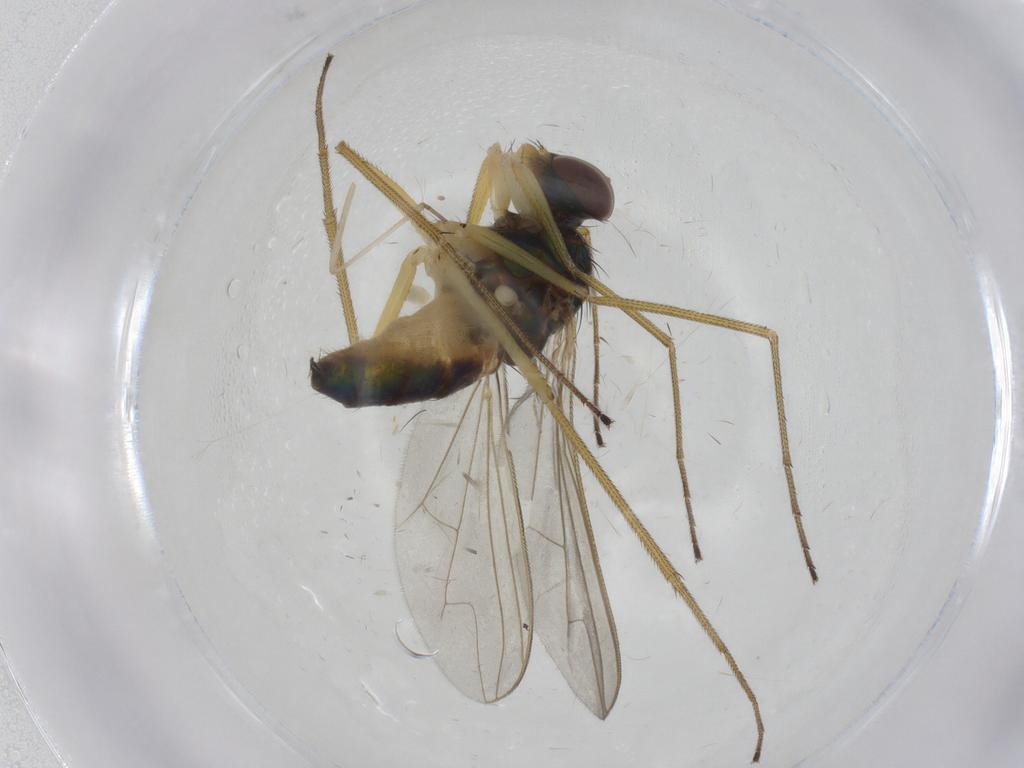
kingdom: Animalia
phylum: Arthropoda
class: Insecta
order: Diptera
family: Dolichopodidae
